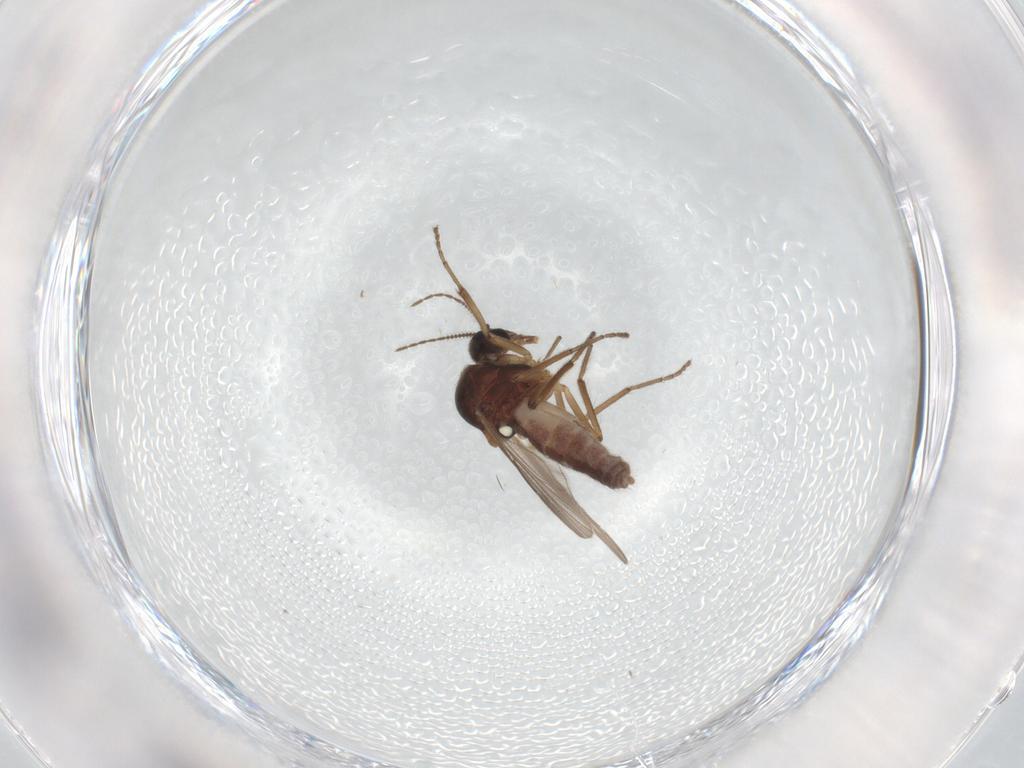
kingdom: Animalia
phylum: Arthropoda
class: Insecta
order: Diptera
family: Ceratopogonidae
